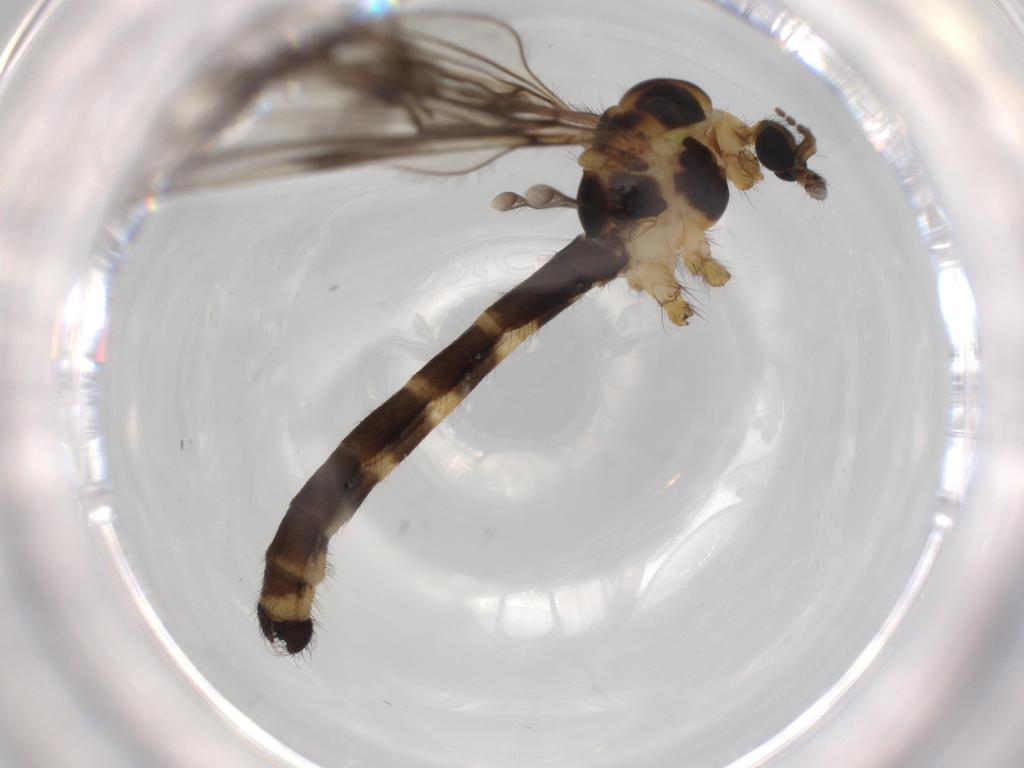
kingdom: Animalia
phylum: Arthropoda
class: Insecta
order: Diptera
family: Limoniidae
